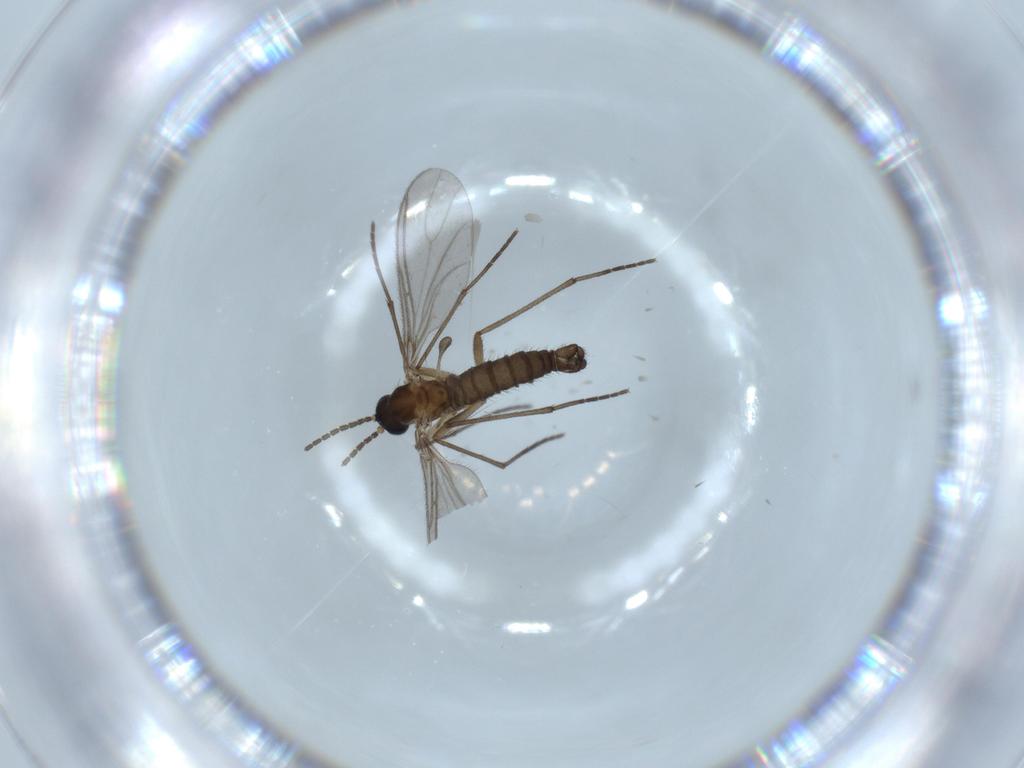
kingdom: Animalia
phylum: Arthropoda
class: Insecta
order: Diptera
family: Sciaridae
